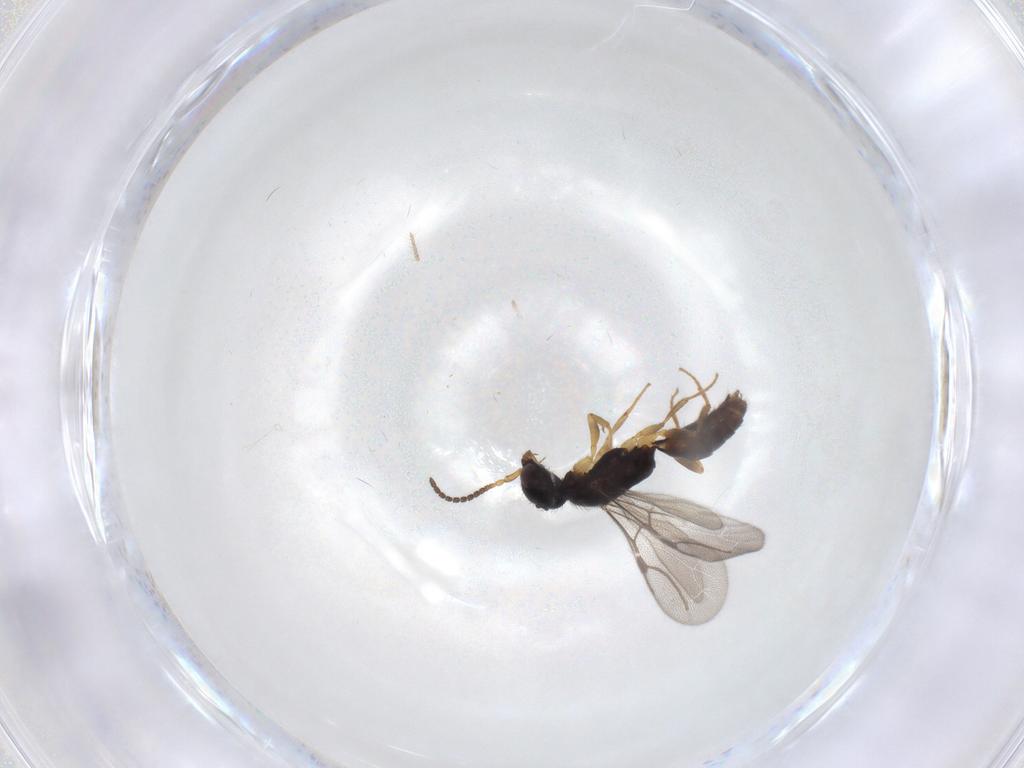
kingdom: Animalia
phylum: Arthropoda
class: Insecta
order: Hymenoptera
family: Bethylidae
